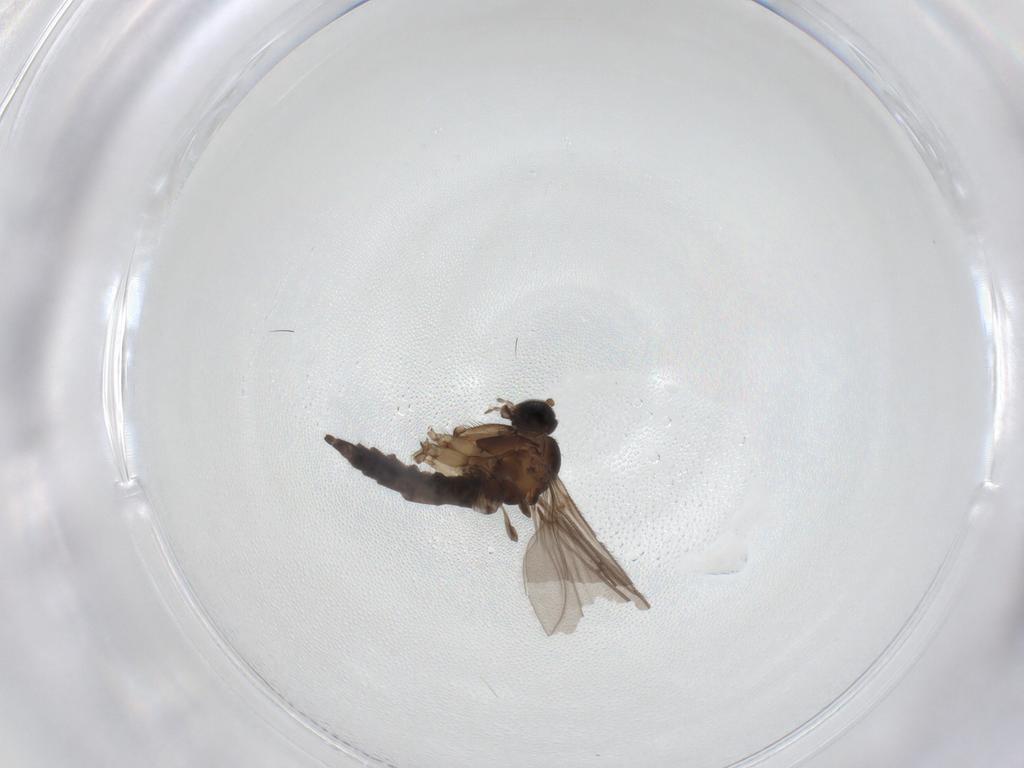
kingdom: Animalia
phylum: Arthropoda
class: Insecta
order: Diptera
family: Sciaridae
